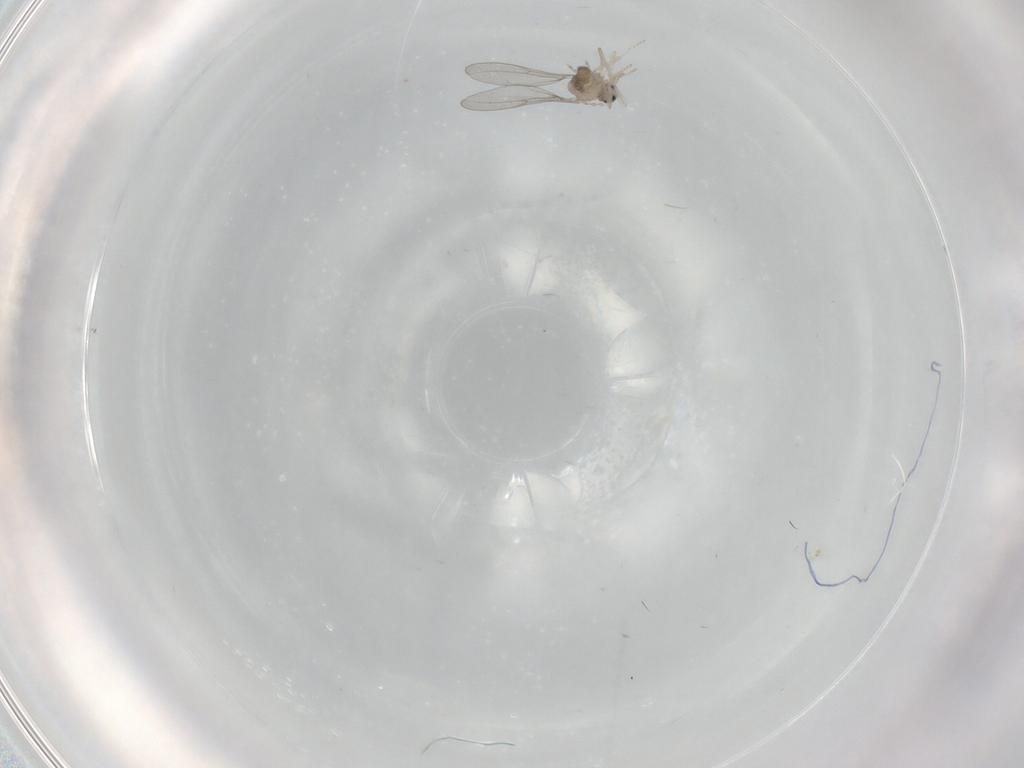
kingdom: Animalia
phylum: Arthropoda
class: Insecta
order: Diptera
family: Cecidomyiidae
